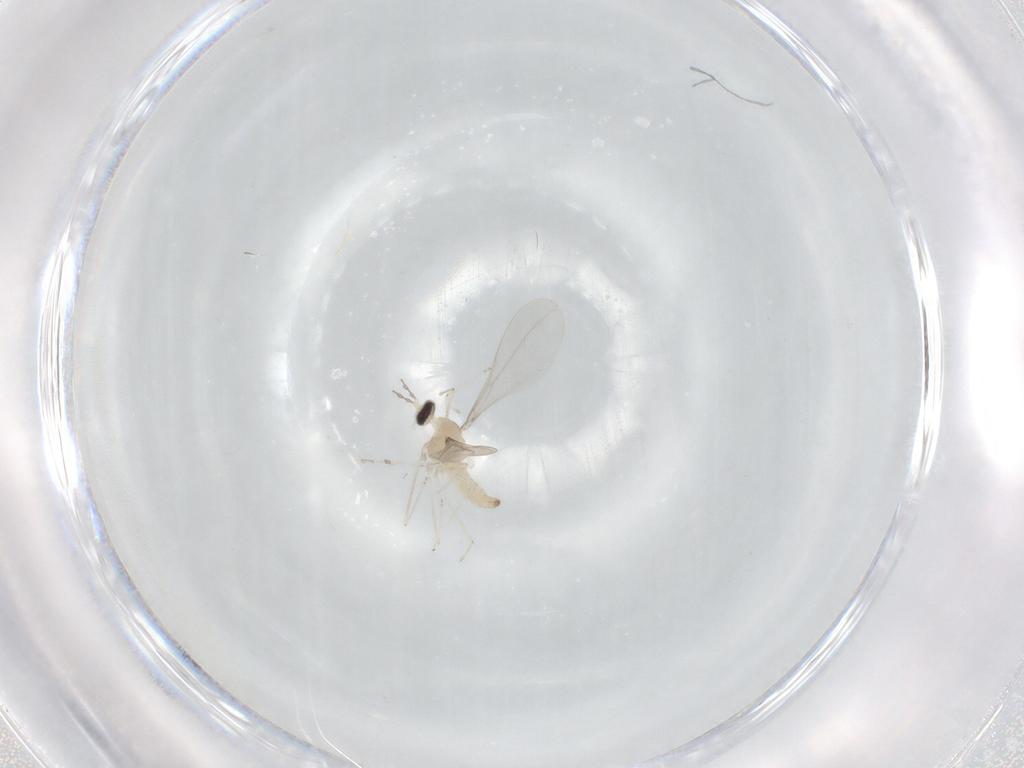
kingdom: Animalia
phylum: Arthropoda
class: Insecta
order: Diptera
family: Cecidomyiidae
